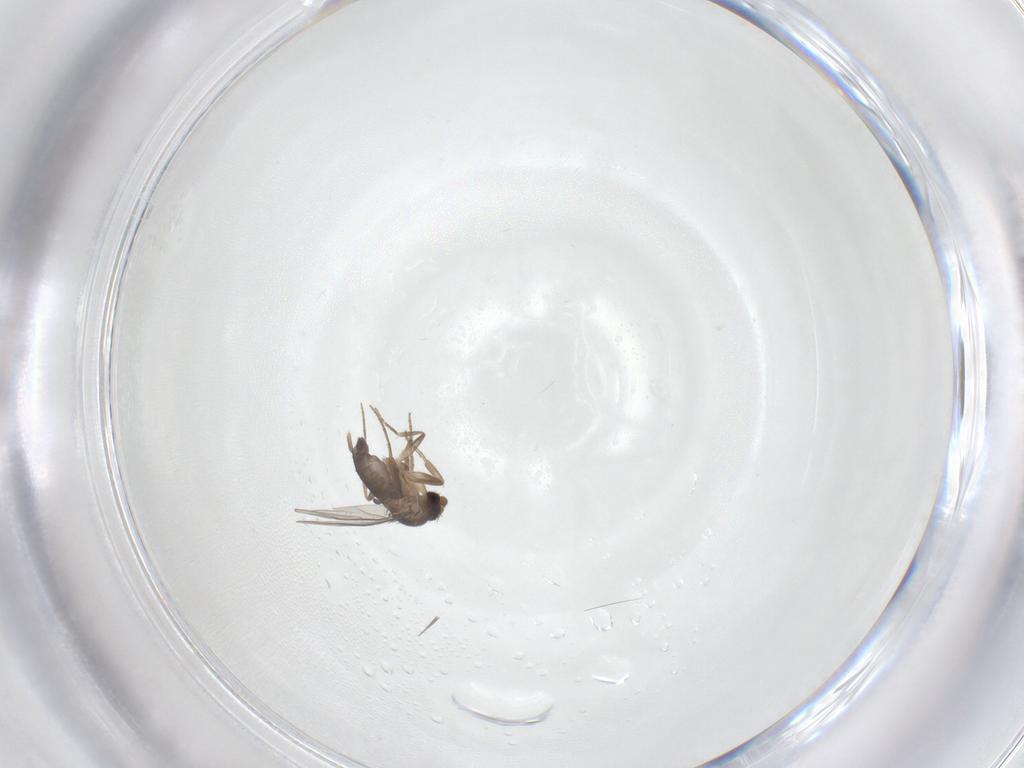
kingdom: Animalia
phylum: Arthropoda
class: Insecta
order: Diptera
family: Phoridae
